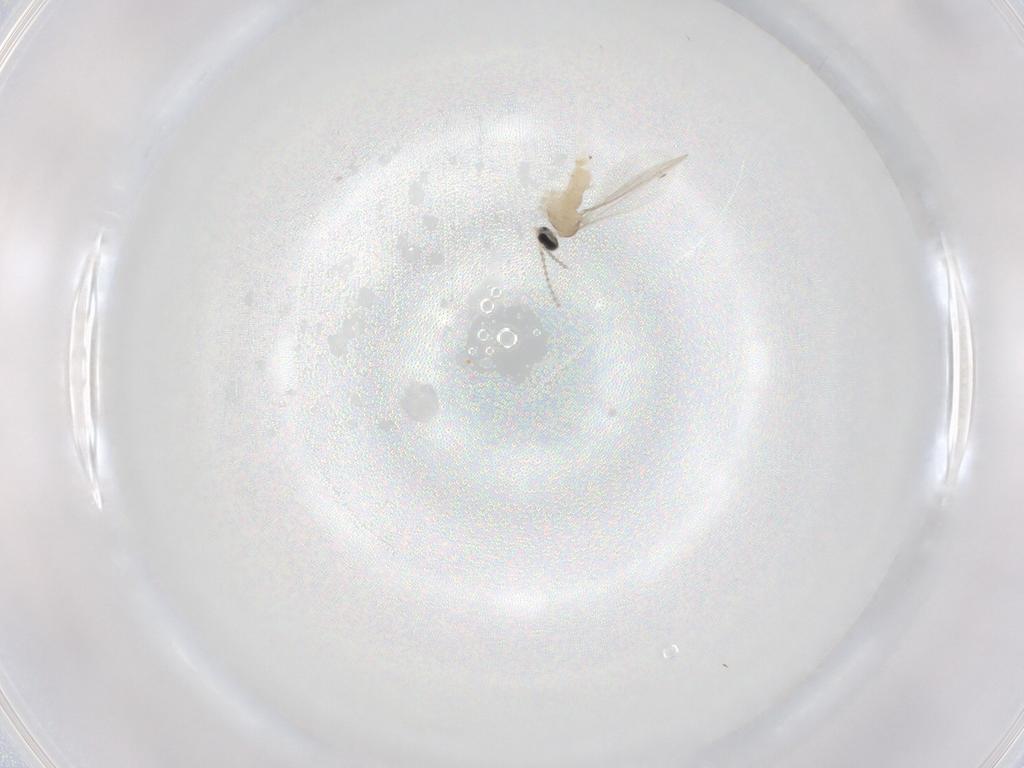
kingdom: Animalia
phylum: Arthropoda
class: Insecta
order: Diptera
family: Cecidomyiidae
